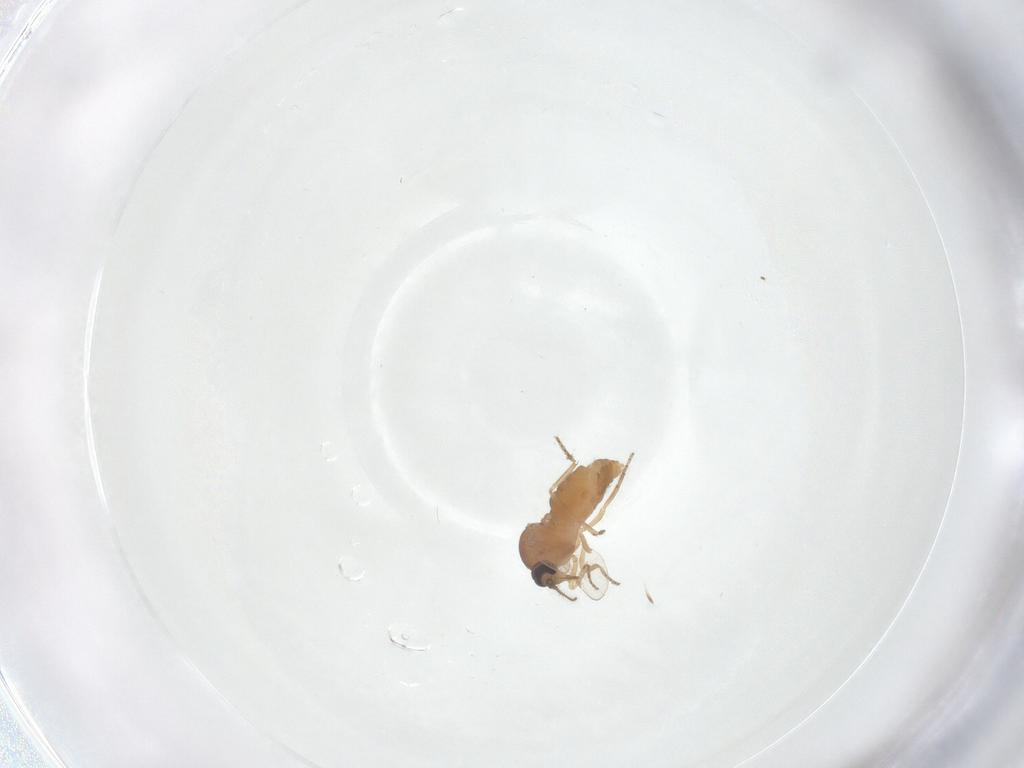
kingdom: Animalia
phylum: Arthropoda
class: Insecta
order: Diptera
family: Ceratopogonidae
